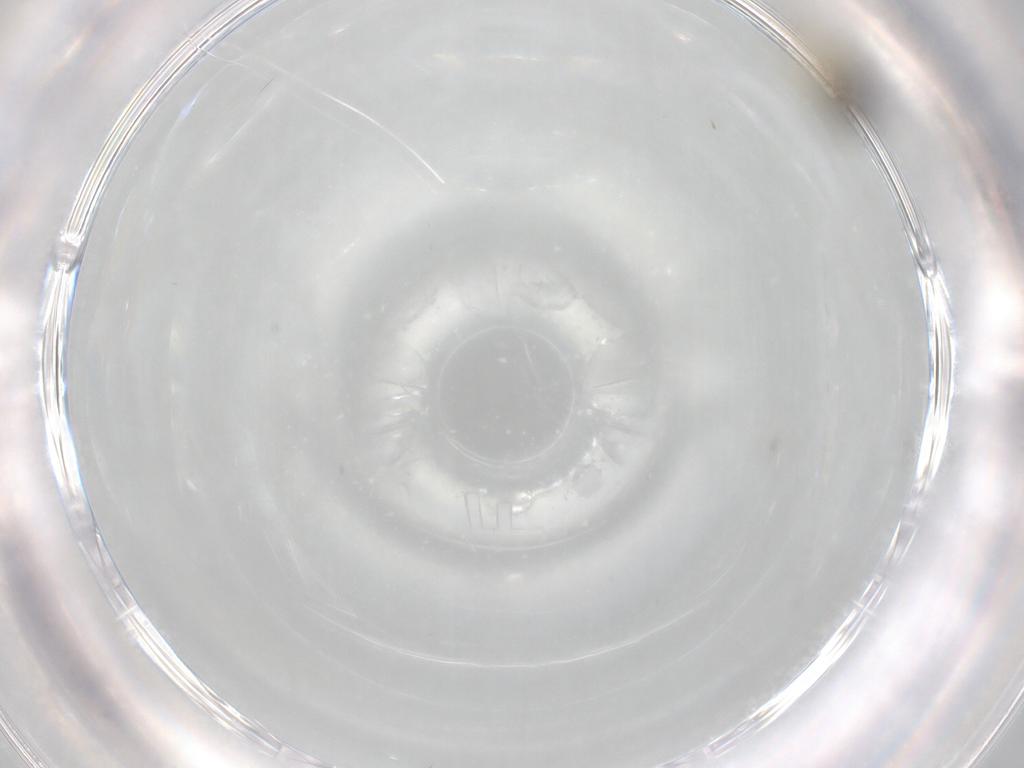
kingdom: Animalia
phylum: Arthropoda
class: Insecta
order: Hemiptera
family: Cicadellidae
